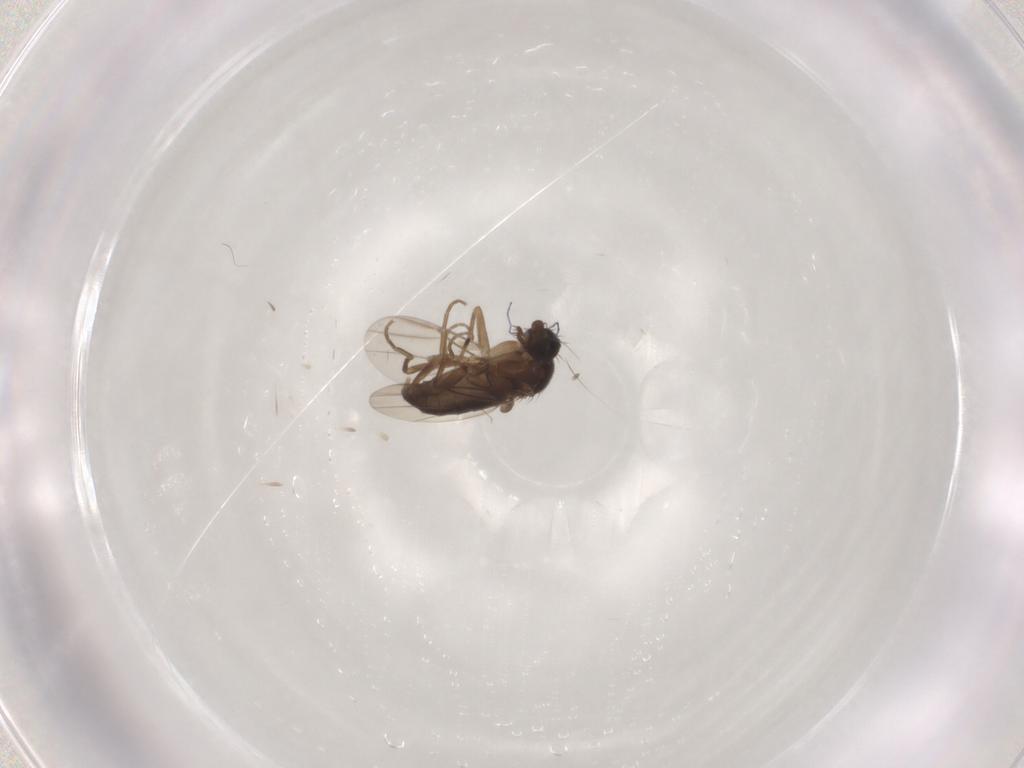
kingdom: Animalia
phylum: Arthropoda
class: Insecta
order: Diptera
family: Phoridae
